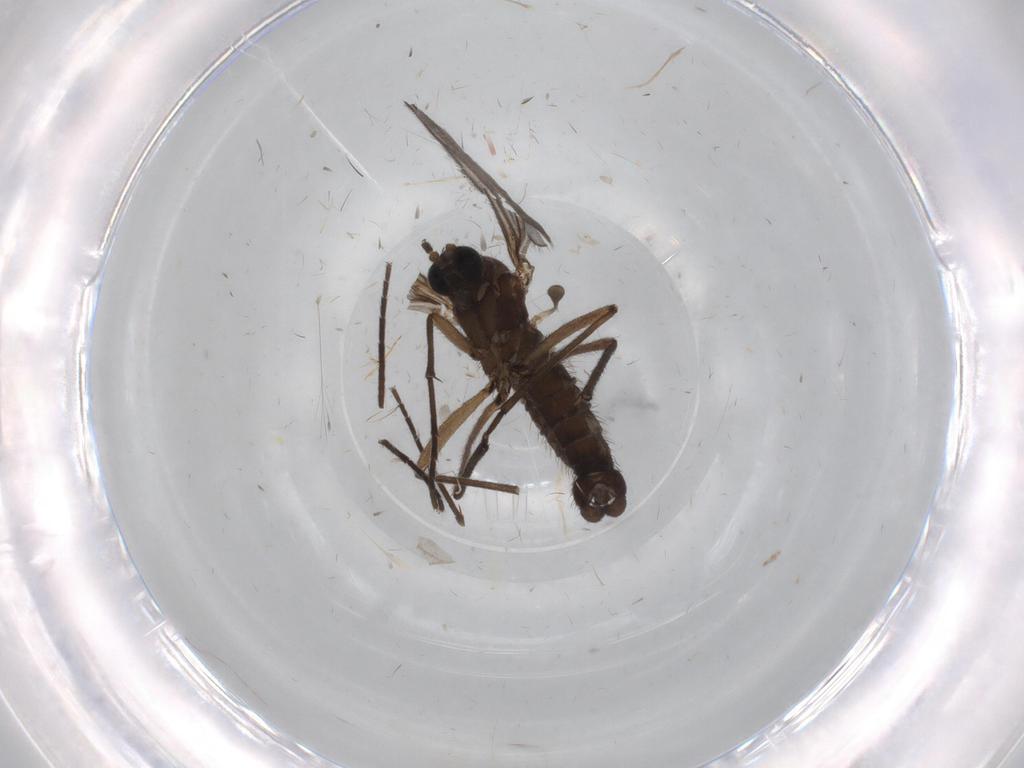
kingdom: Animalia
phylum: Arthropoda
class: Insecta
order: Diptera
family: Sciaridae
